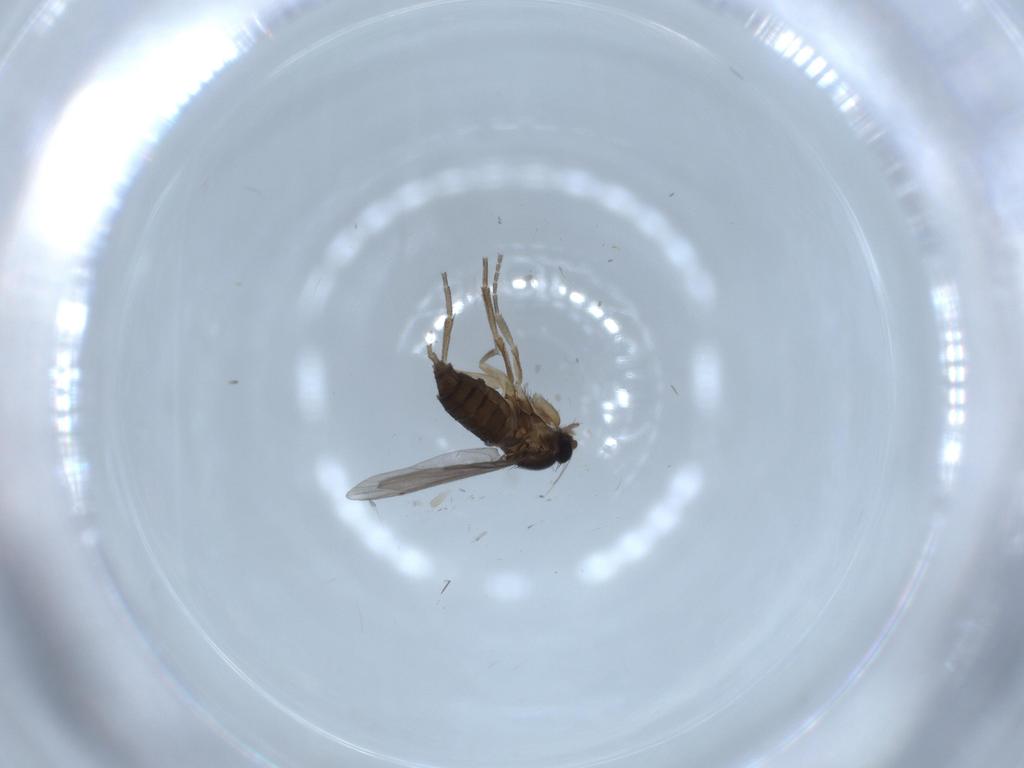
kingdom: Animalia
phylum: Arthropoda
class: Insecta
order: Diptera
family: Phoridae
